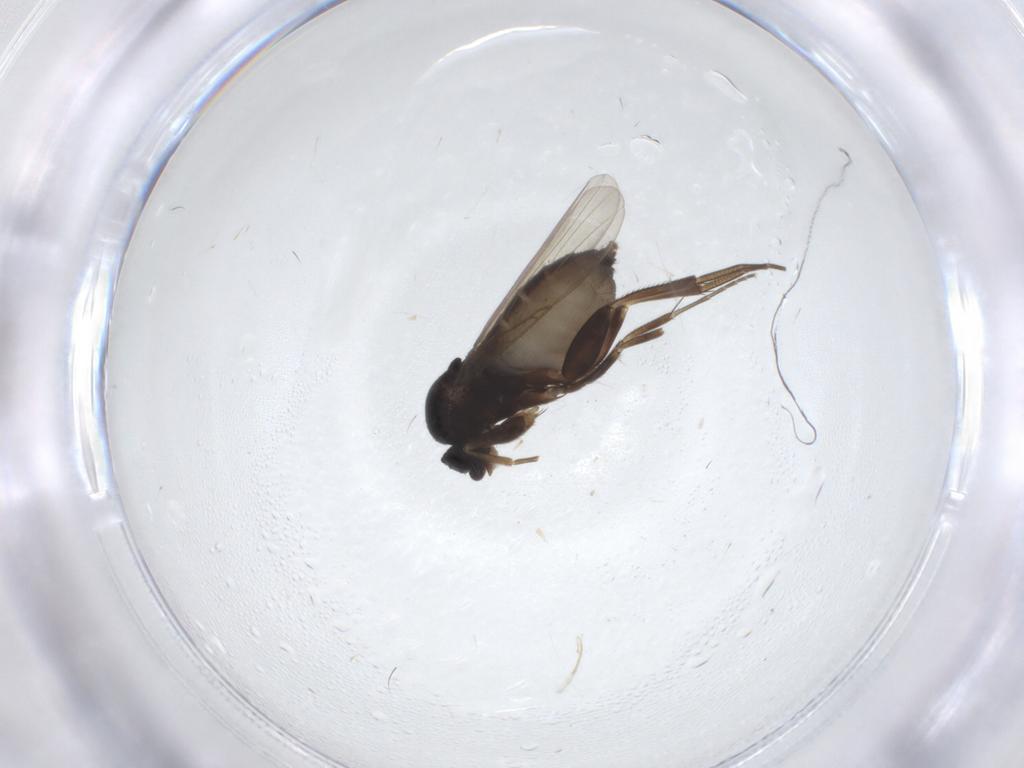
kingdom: Animalia
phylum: Arthropoda
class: Insecta
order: Diptera
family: Phoridae
